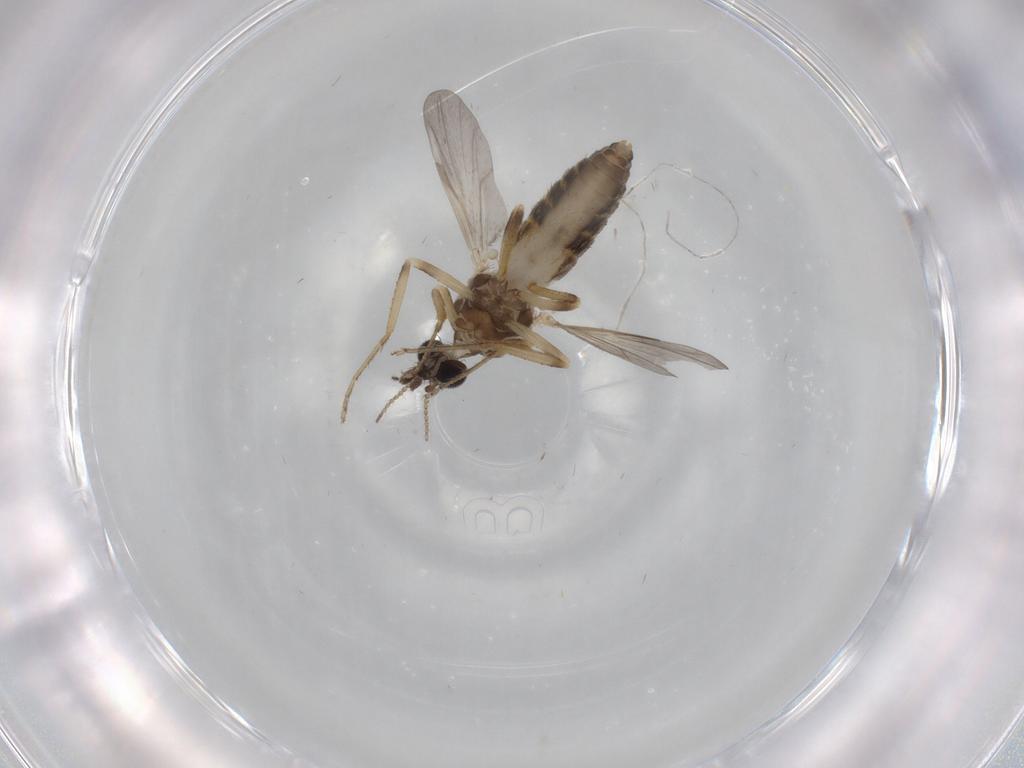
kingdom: Animalia
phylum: Arthropoda
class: Insecta
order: Diptera
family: Ceratopogonidae
